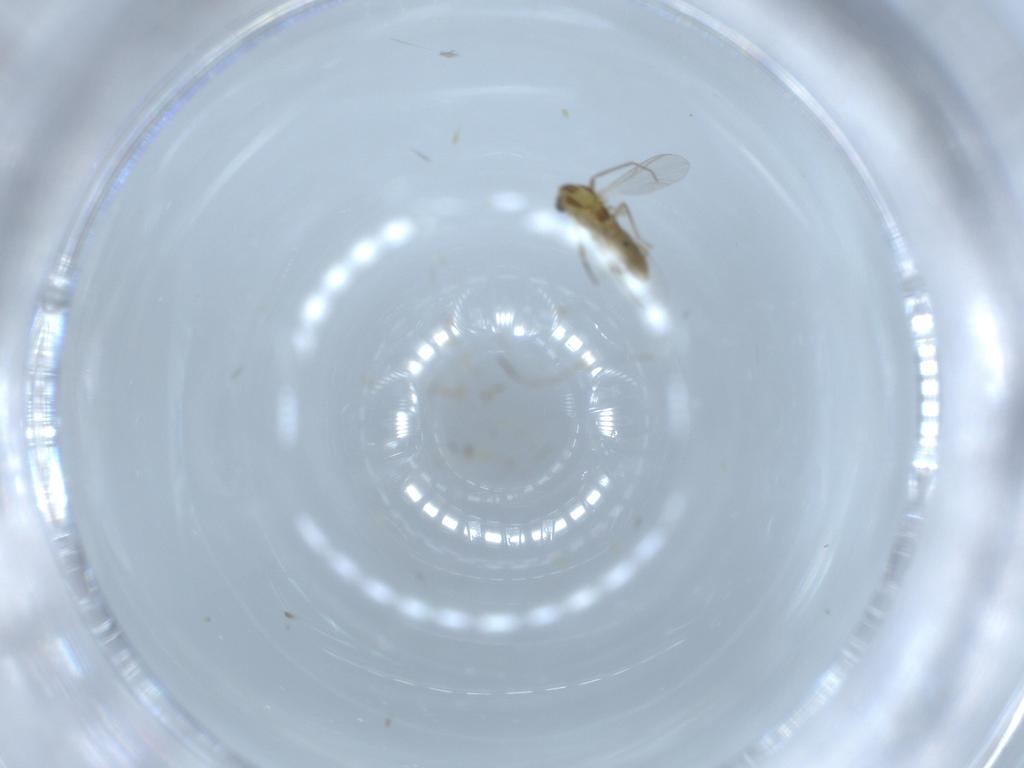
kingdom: Animalia
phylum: Arthropoda
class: Insecta
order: Diptera
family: Chironomidae
